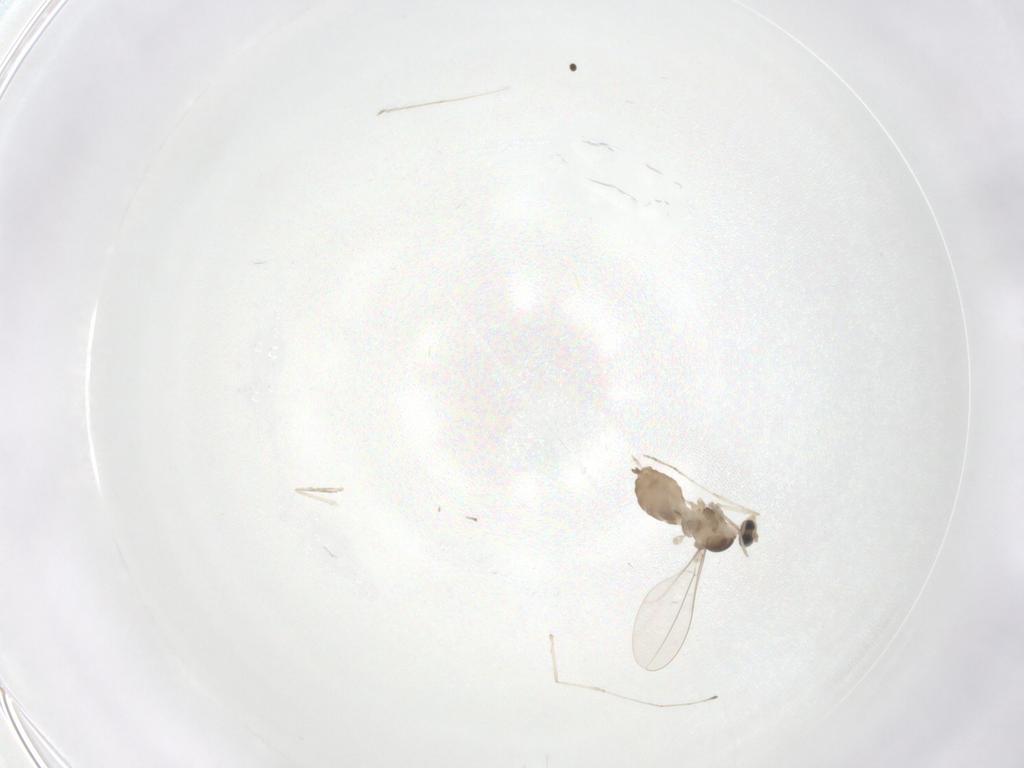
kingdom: Animalia
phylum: Arthropoda
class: Insecta
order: Diptera
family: Cecidomyiidae
